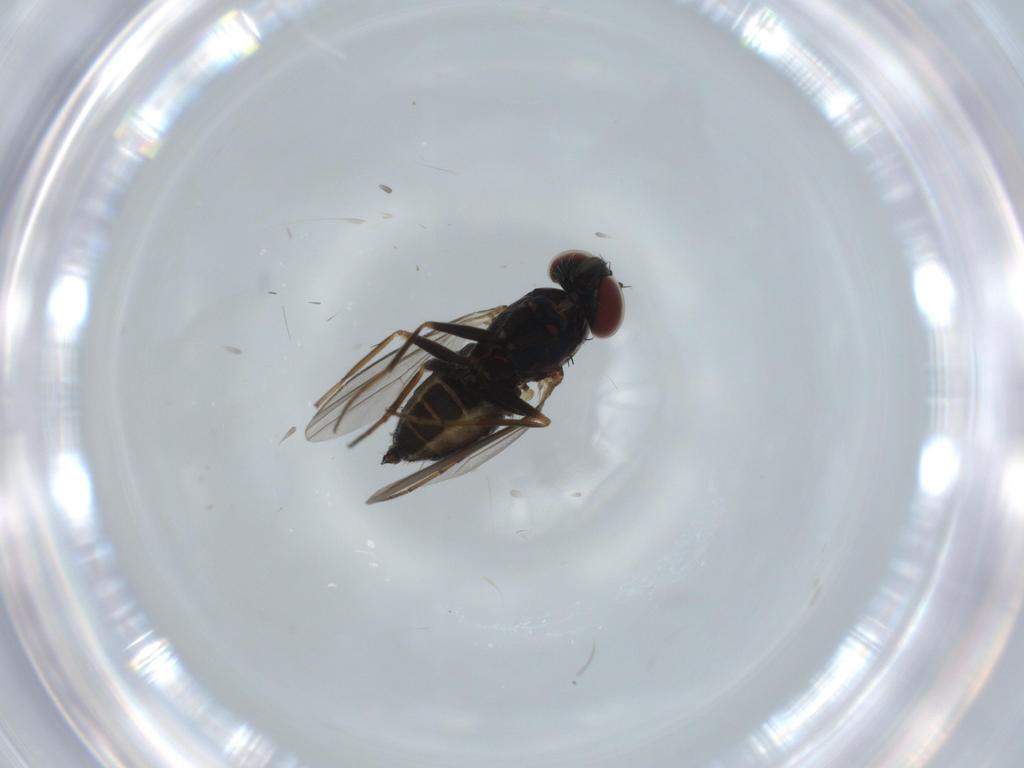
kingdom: Animalia
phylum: Arthropoda
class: Insecta
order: Diptera
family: Dolichopodidae
